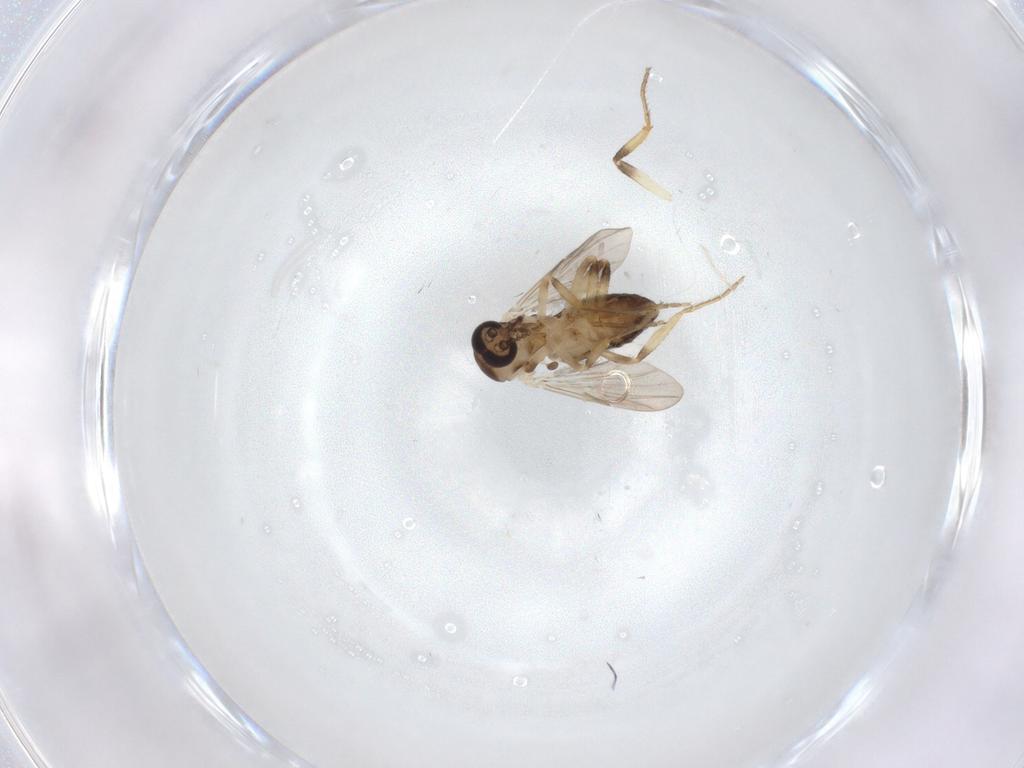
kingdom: Animalia
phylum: Arthropoda
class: Insecta
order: Diptera
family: Ceratopogonidae
